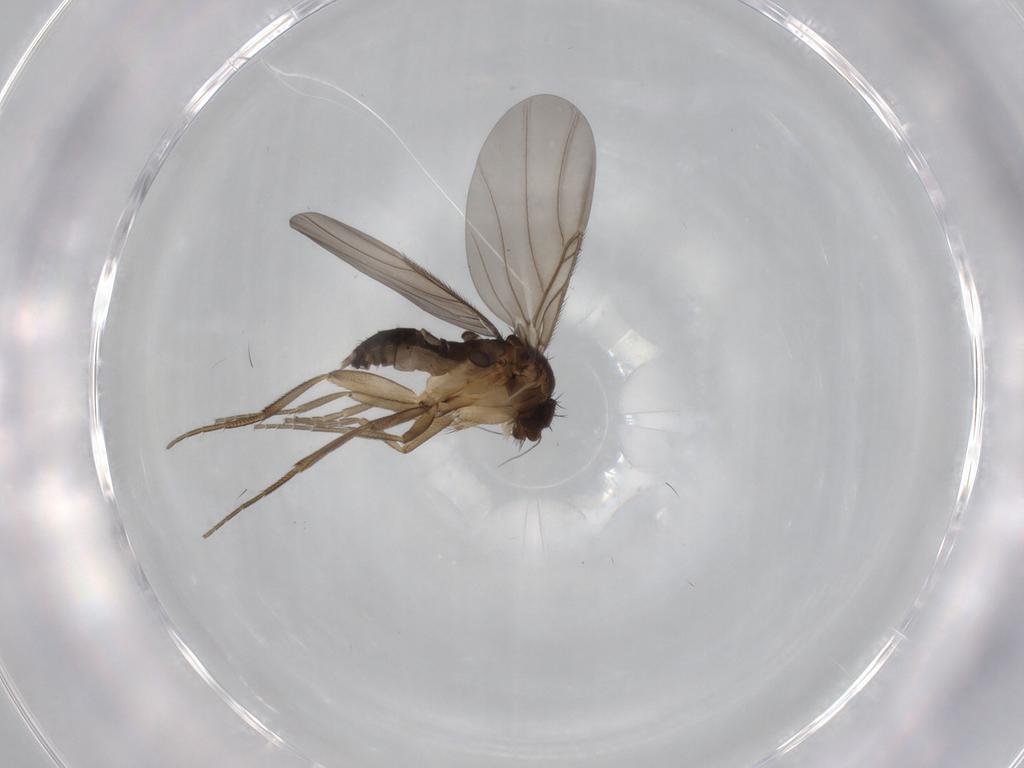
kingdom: Animalia
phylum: Arthropoda
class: Insecta
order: Diptera
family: Phoridae
